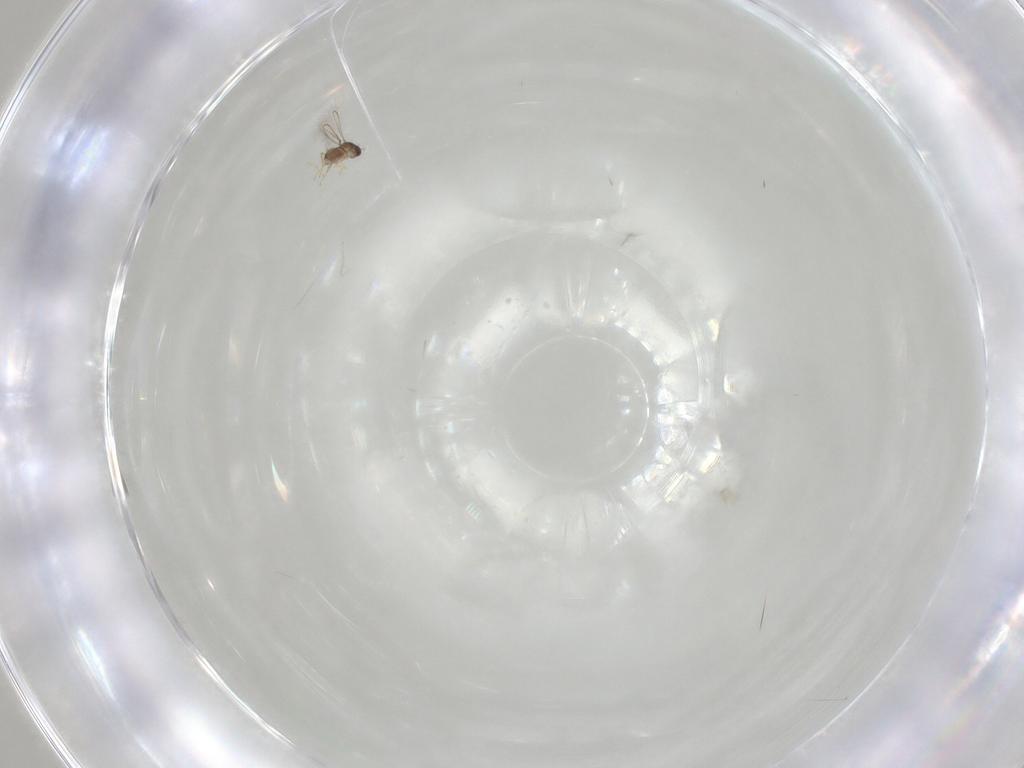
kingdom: Animalia
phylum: Arthropoda
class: Insecta
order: Hymenoptera
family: Mymaridae
